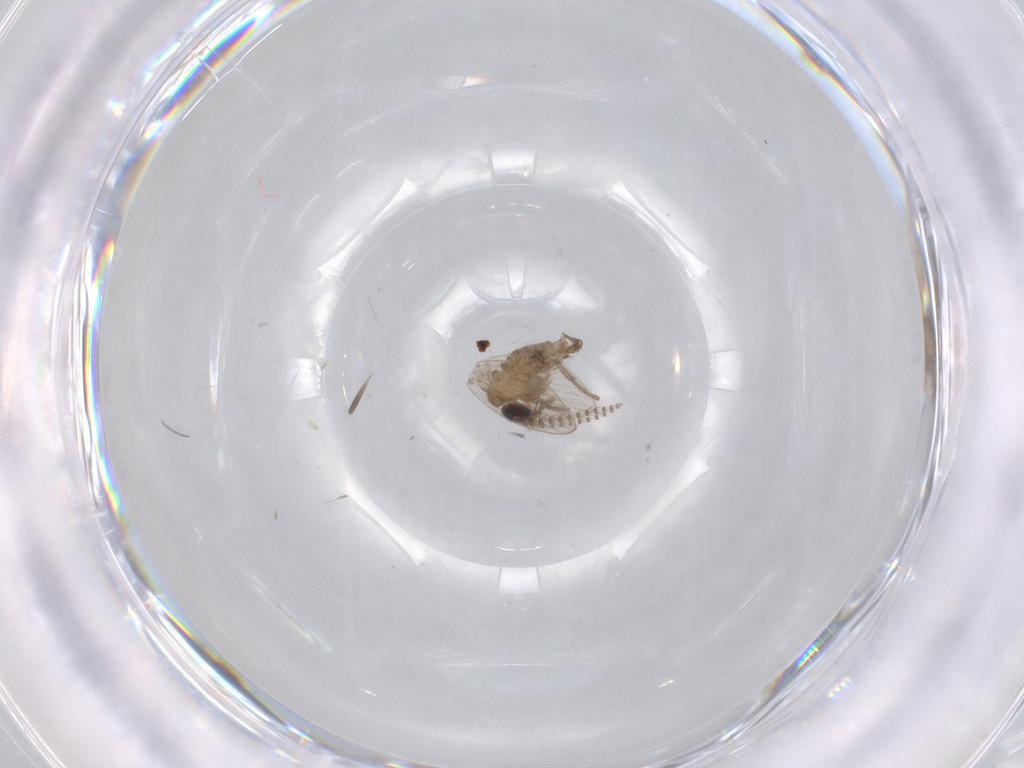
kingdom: Animalia
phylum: Arthropoda
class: Insecta
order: Diptera
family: Psychodidae
